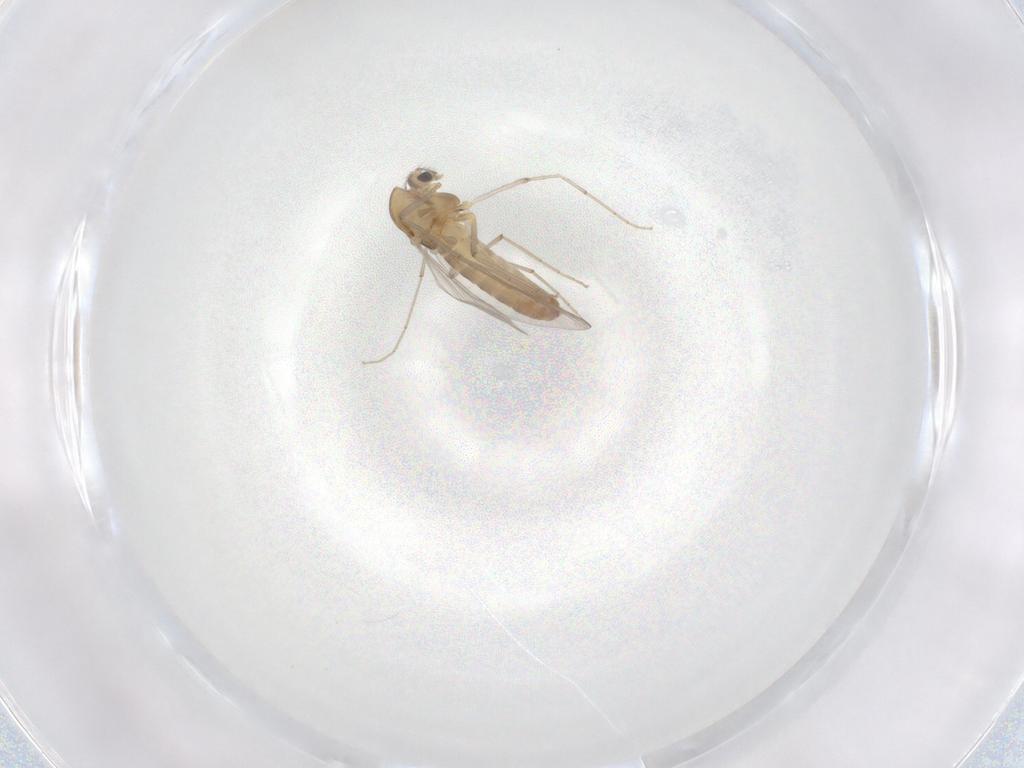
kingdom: Animalia
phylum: Arthropoda
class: Insecta
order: Diptera
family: Chironomidae
